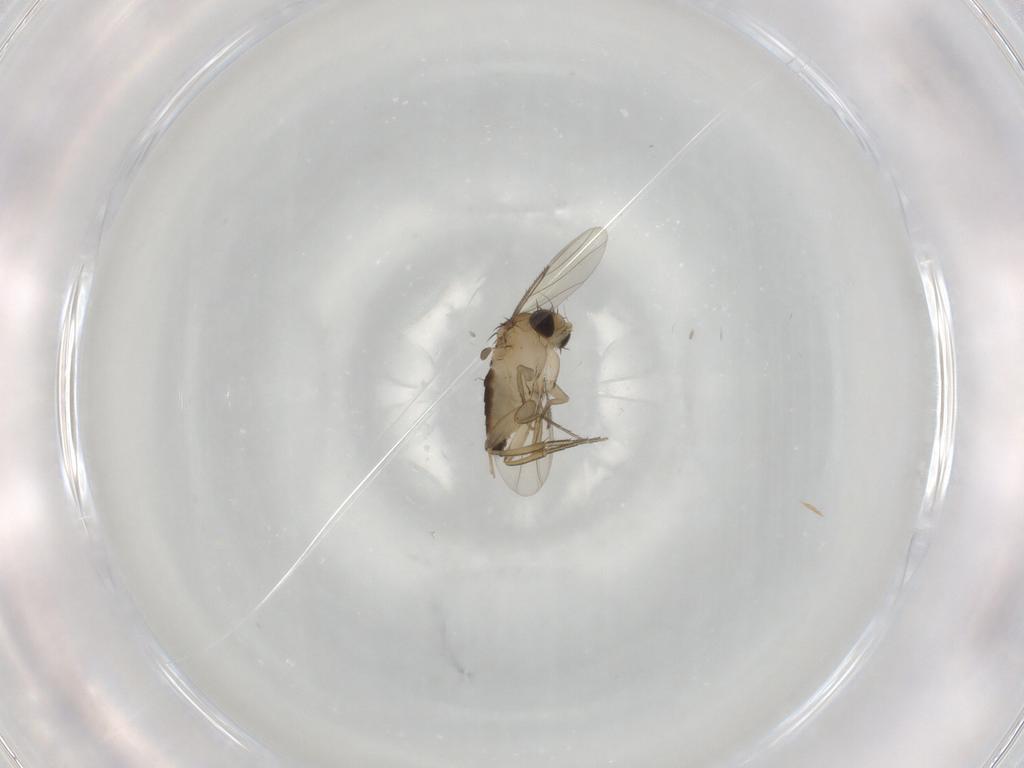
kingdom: Animalia
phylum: Arthropoda
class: Insecta
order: Diptera
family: Phoridae
